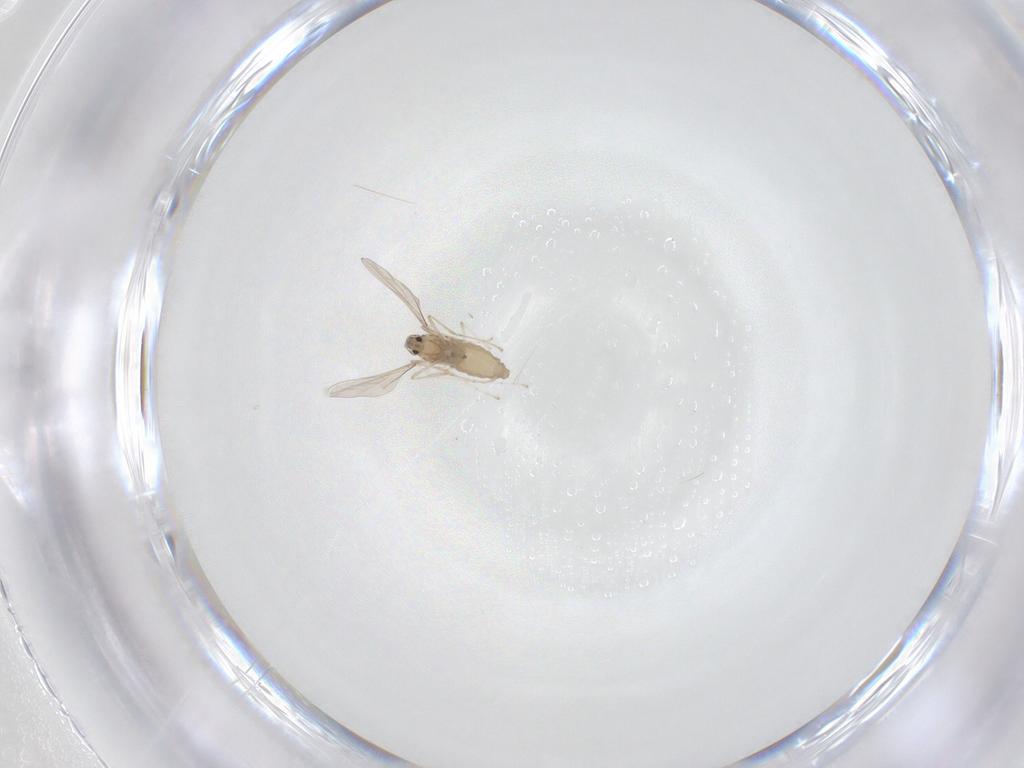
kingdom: Animalia
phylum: Arthropoda
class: Insecta
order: Diptera
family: Cecidomyiidae
